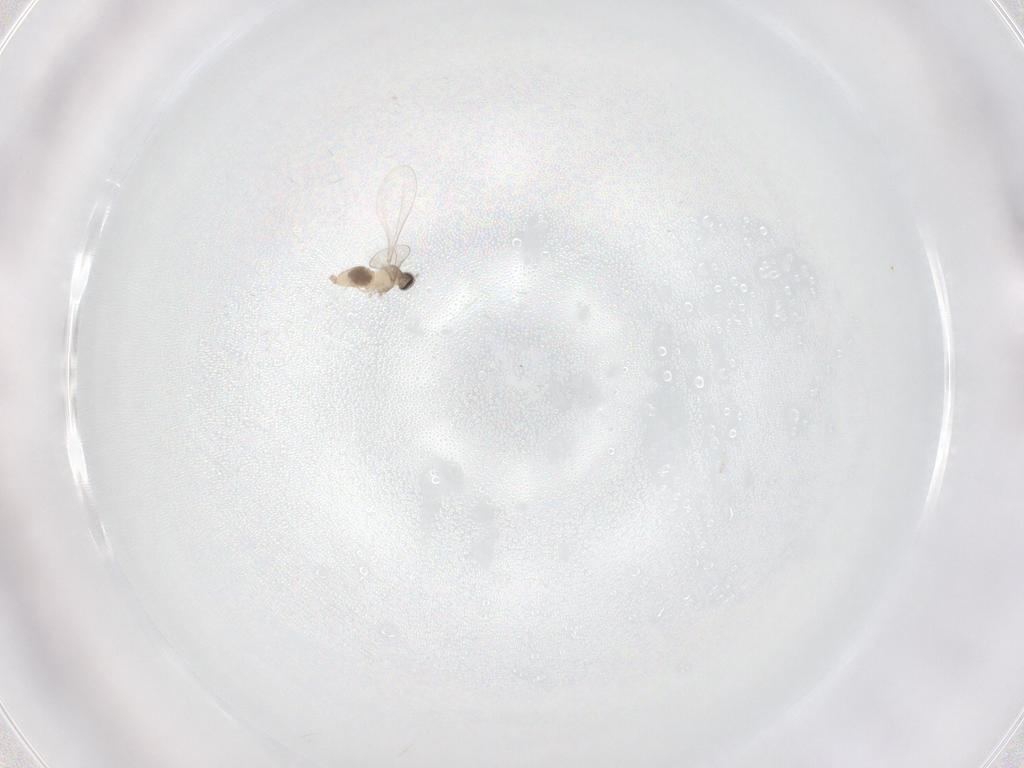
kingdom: Animalia
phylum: Arthropoda
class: Insecta
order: Diptera
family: Cecidomyiidae
